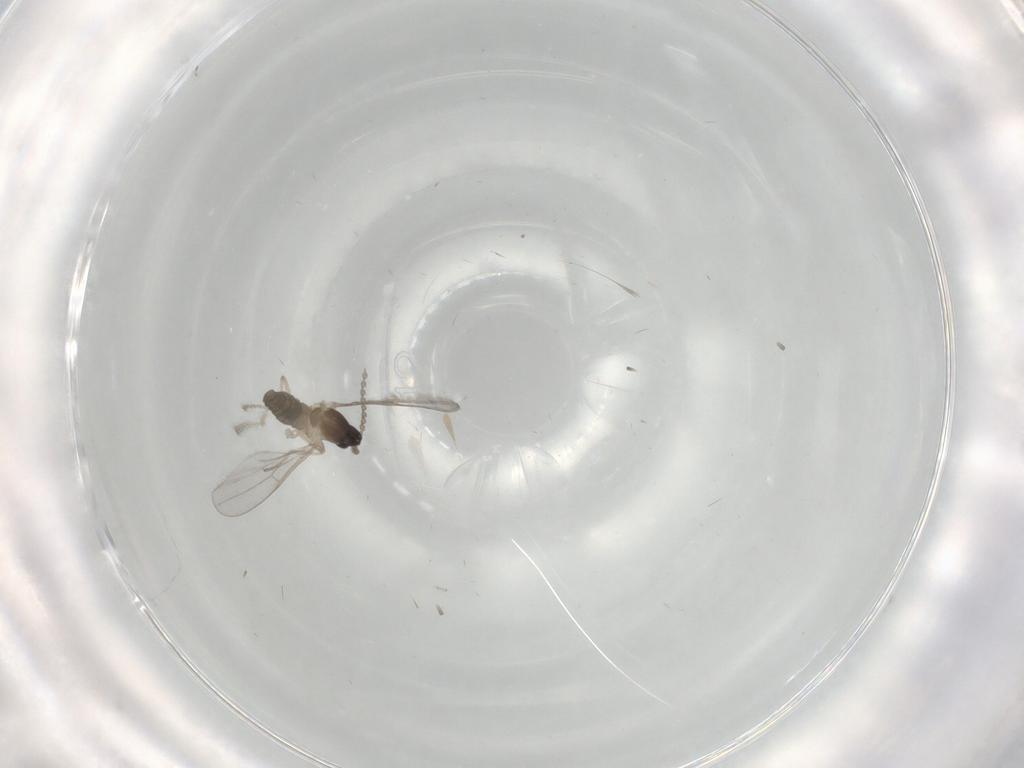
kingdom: Animalia
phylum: Arthropoda
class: Insecta
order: Diptera
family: Cecidomyiidae
